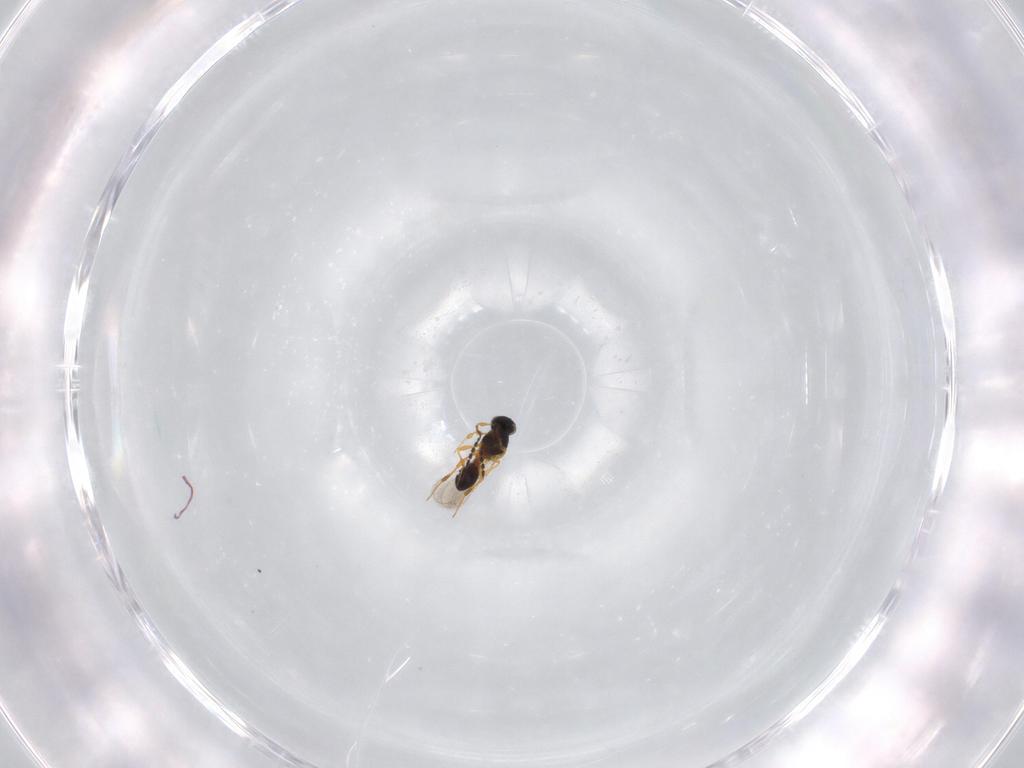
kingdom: Animalia
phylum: Arthropoda
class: Insecta
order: Hymenoptera
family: Platygastridae
